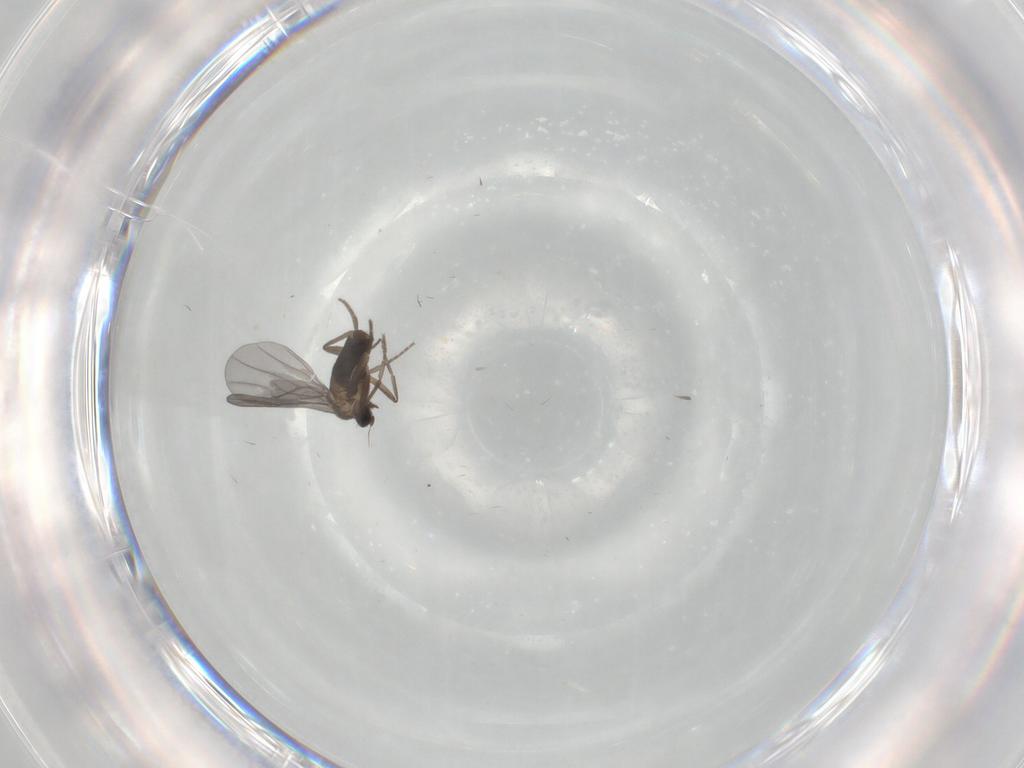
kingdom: Animalia
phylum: Arthropoda
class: Insecta
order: Diptera
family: Phoridae
